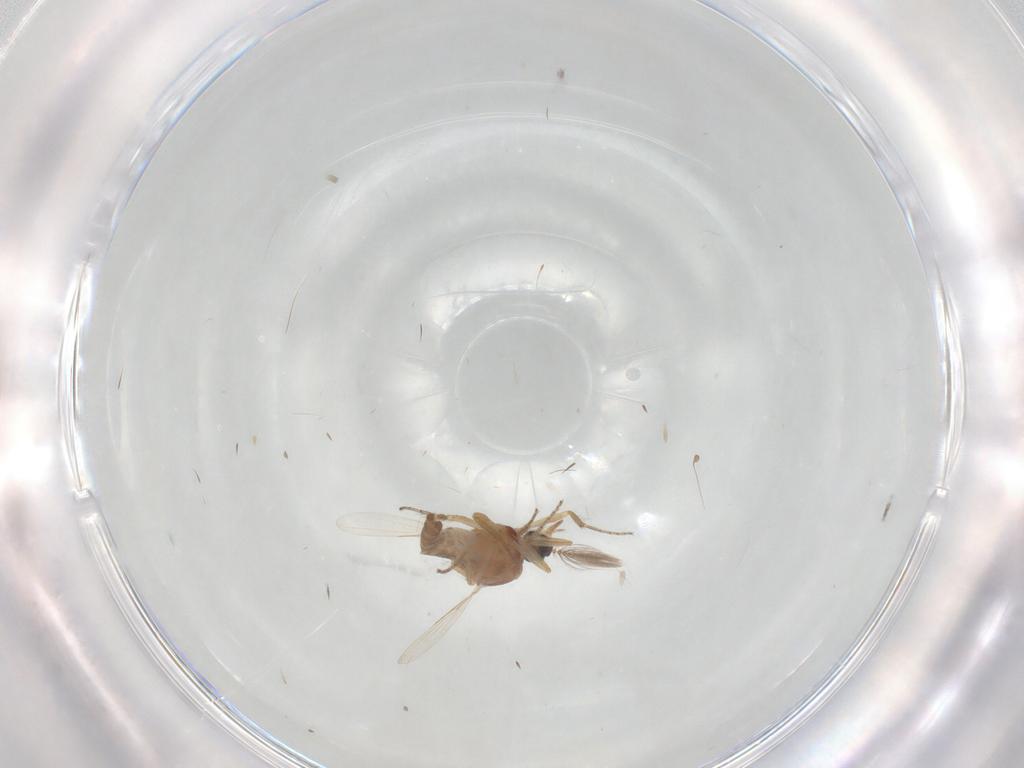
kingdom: Animalia
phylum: Arthropoda
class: Insecta
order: Diptera
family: Ceratopogonidae
